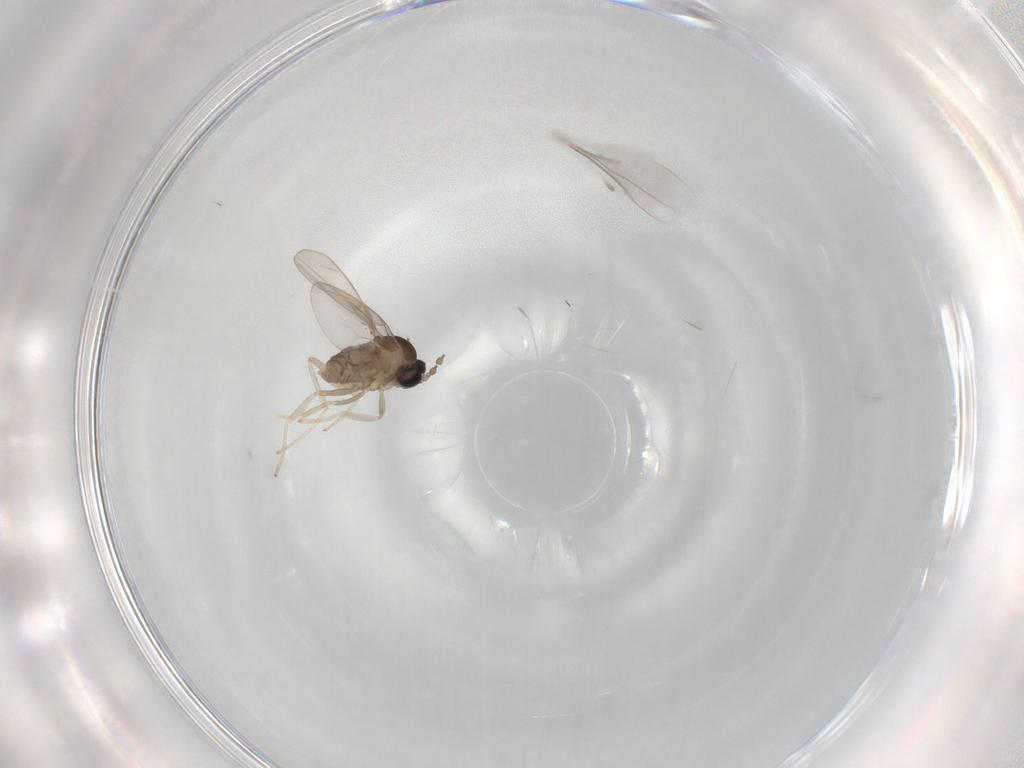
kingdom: Animalia
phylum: Arthropoda
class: Insecta
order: Diptera
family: Cecidomyiidae
